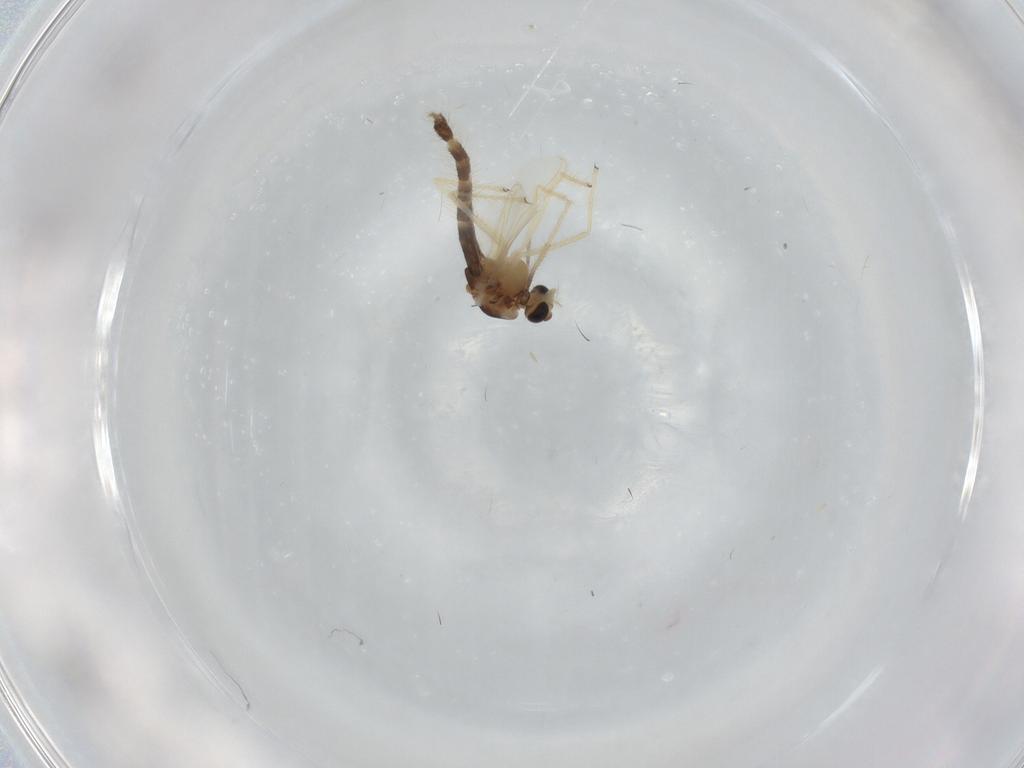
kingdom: Animalia
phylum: Arthropoda
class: Insecta
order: Diptera
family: Chironomidae
